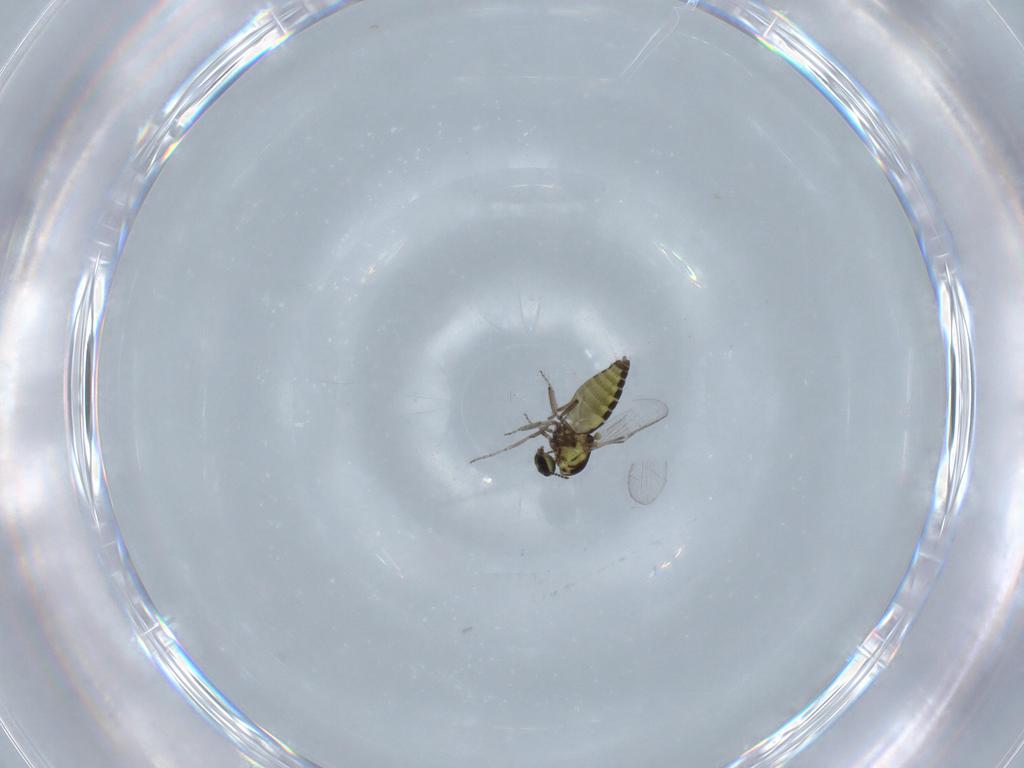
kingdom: Animalia
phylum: Arthropoda
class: Insecta
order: Diptera
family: Ceratopogonidae
